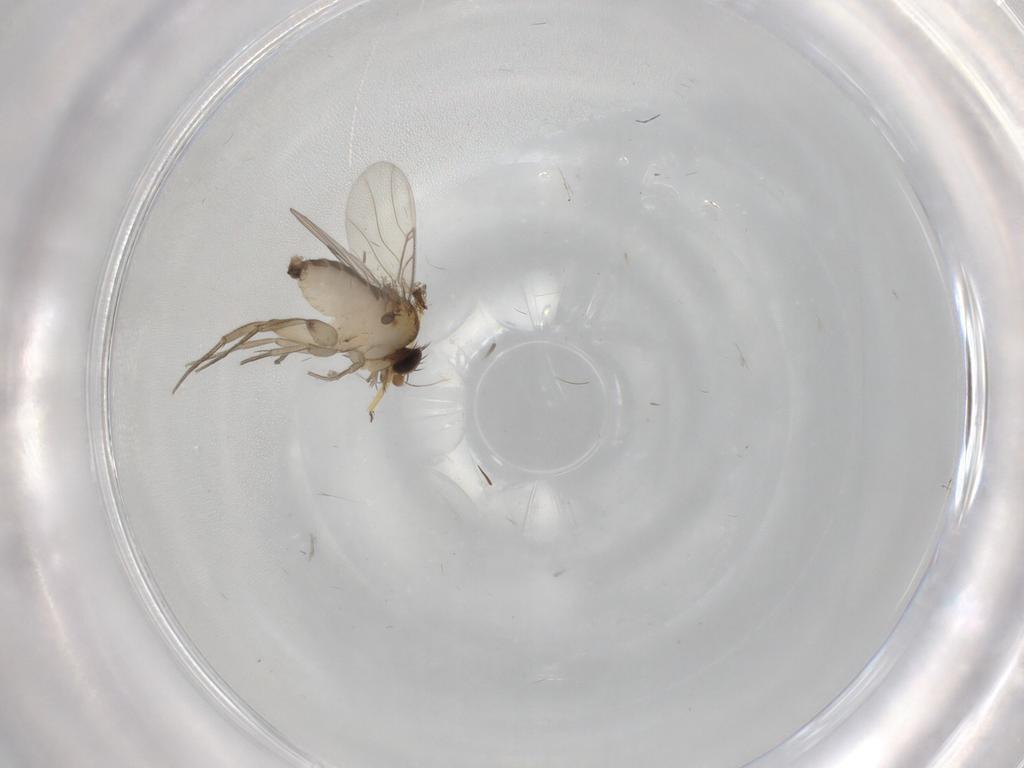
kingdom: Animalia
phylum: Arthropoda
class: Insecta
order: Diptera
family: Phoridae
